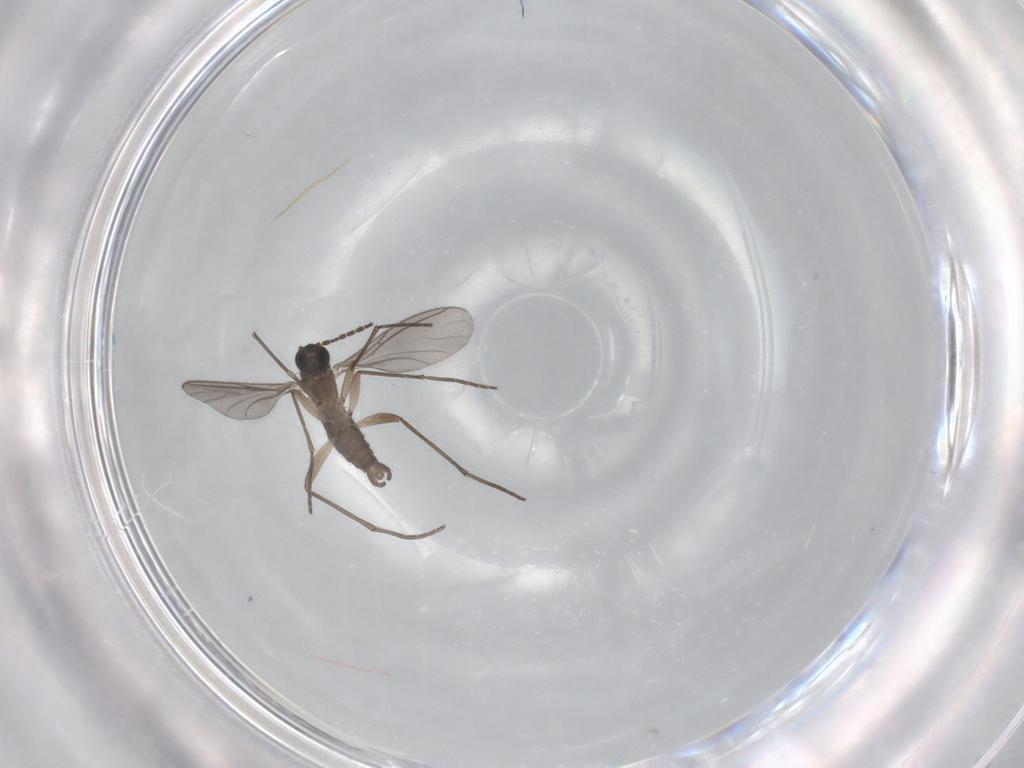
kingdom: Animalia
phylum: Arthropoda
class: Insecta
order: Diptera
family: Sciaridae
